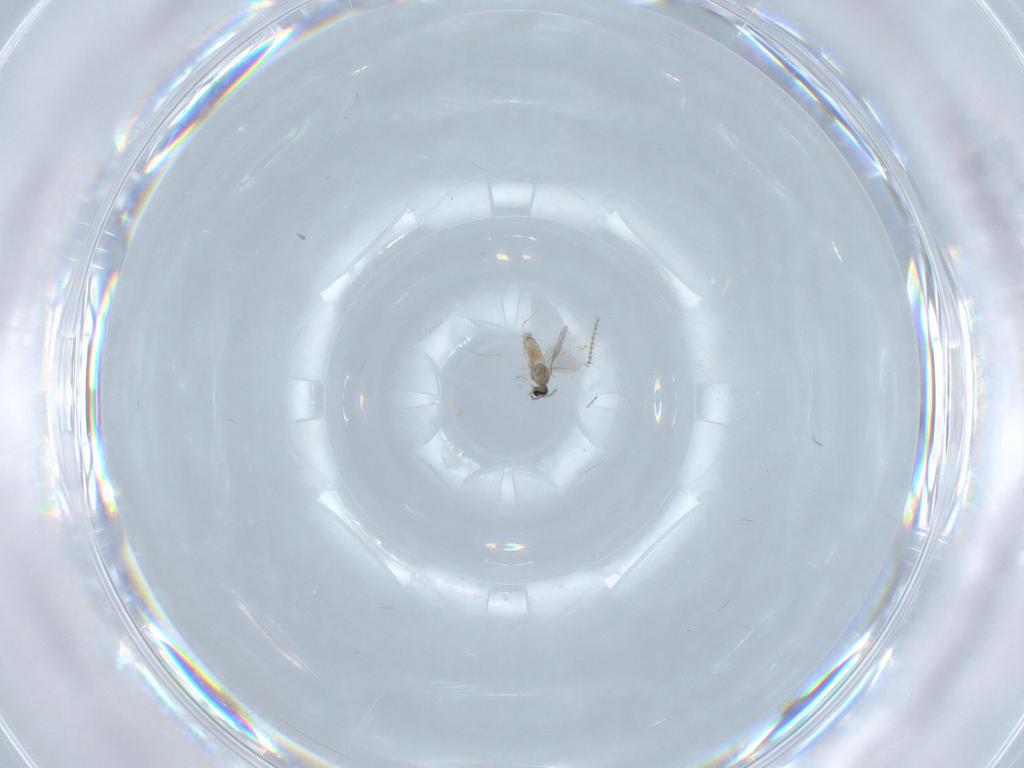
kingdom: Animalia
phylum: Arthropoda
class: Insecta
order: Diptera
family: Cecidomyiidae
